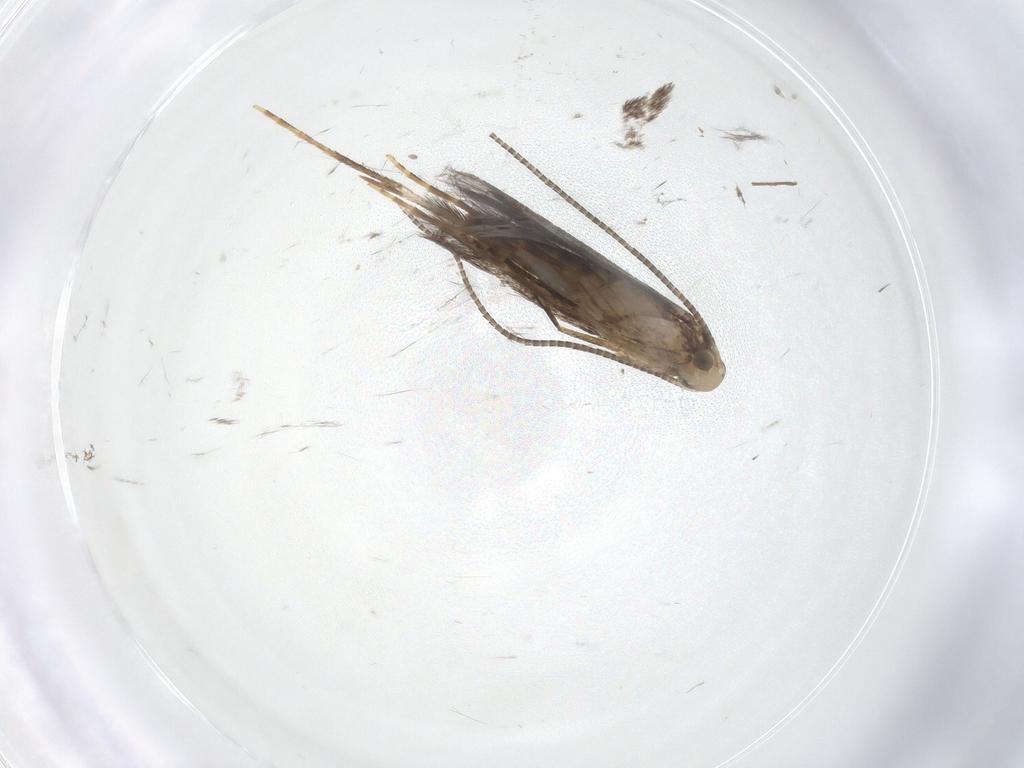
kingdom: Animalia
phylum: Arthropoda
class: Insecta
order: Lepidoptera
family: Gracillariidae
